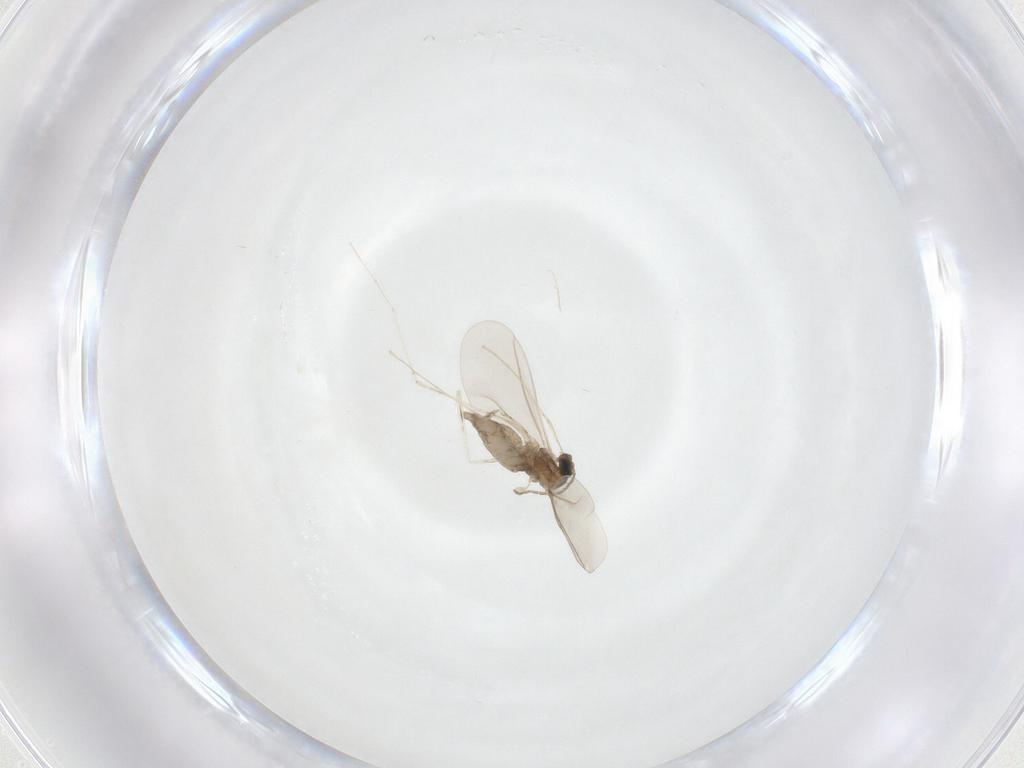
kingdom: Animalia
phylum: Arthropoda
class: Insecta
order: Diptera
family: Cecidomyiidae
